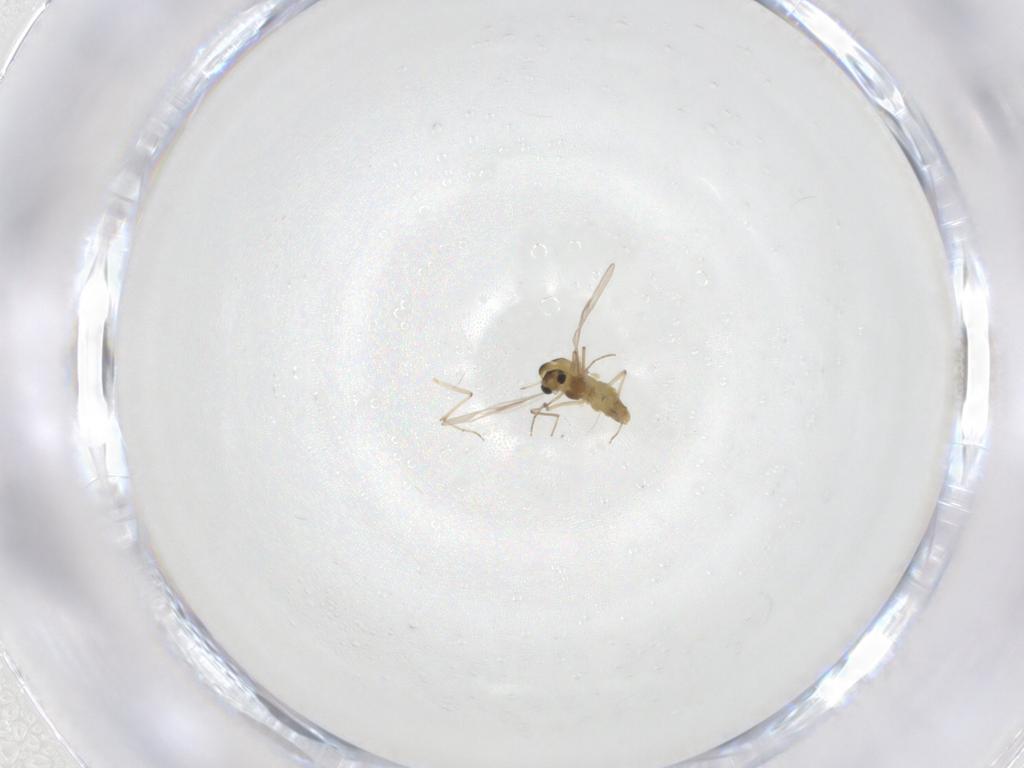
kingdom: Animalia
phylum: Arthropoda
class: Insecta
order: Diptera
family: Chironomidae
